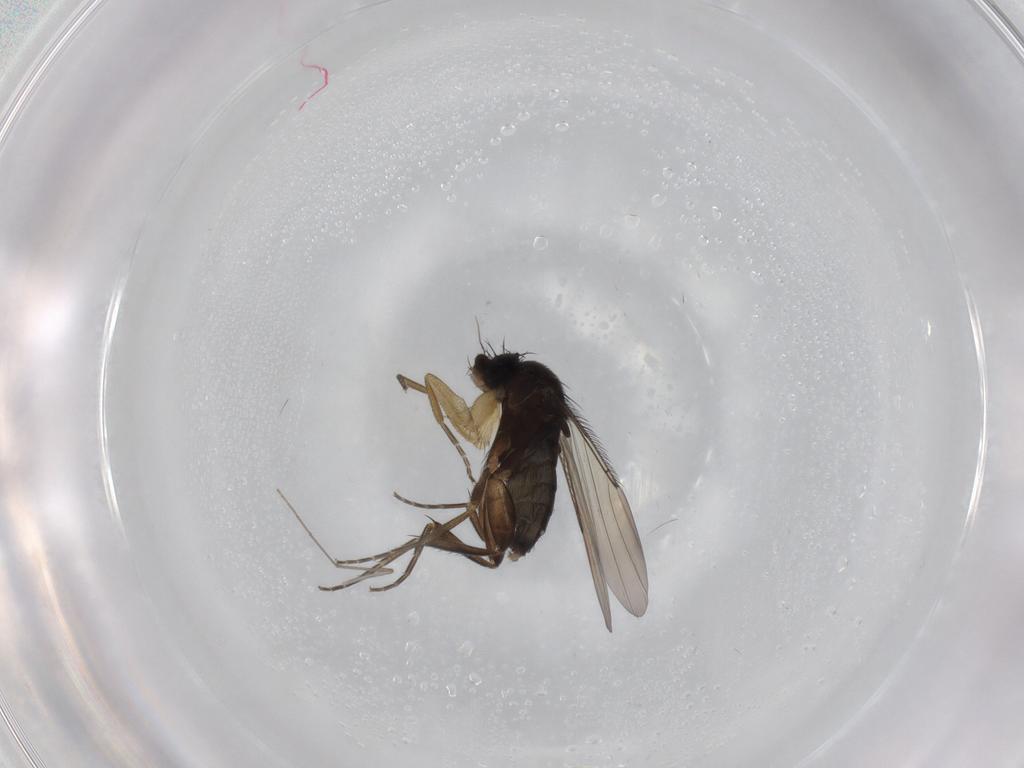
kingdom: Animalia
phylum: Arthropoda
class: Insecta
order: Diptera
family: Phoridae
